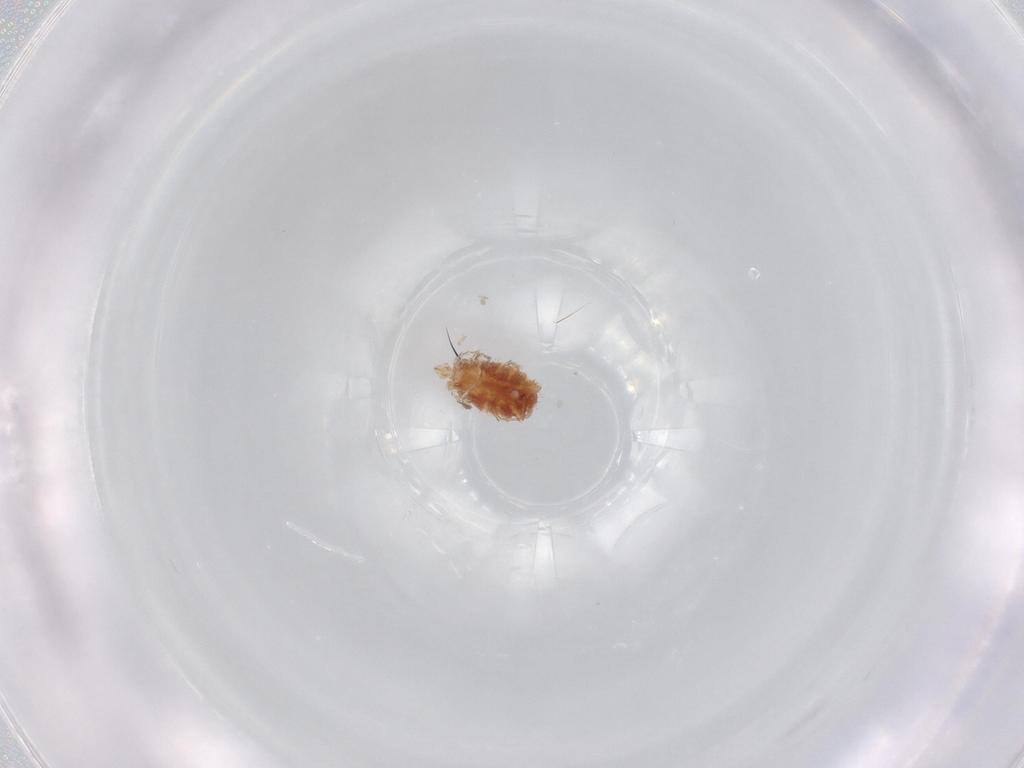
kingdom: Animalia
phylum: Arthropoda
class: Arachnida
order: Trombidiformes
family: Erythraeidae
